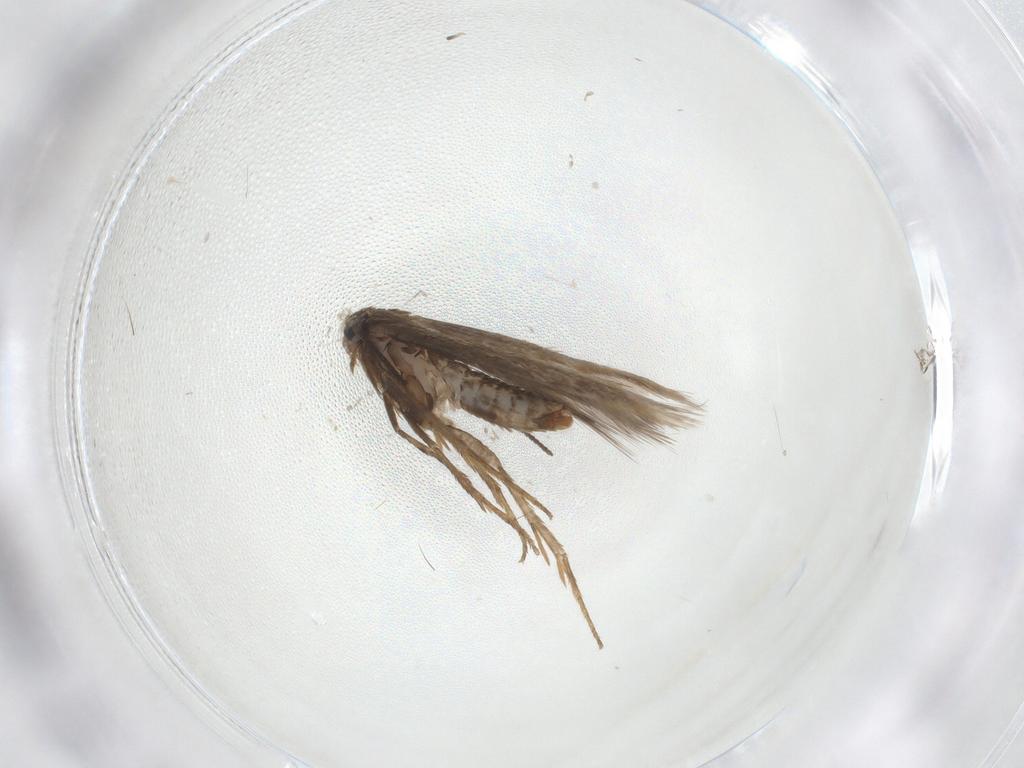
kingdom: Animalia
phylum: Arthropoda
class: Insecta
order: Lepidoptera
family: Nepticulidae
